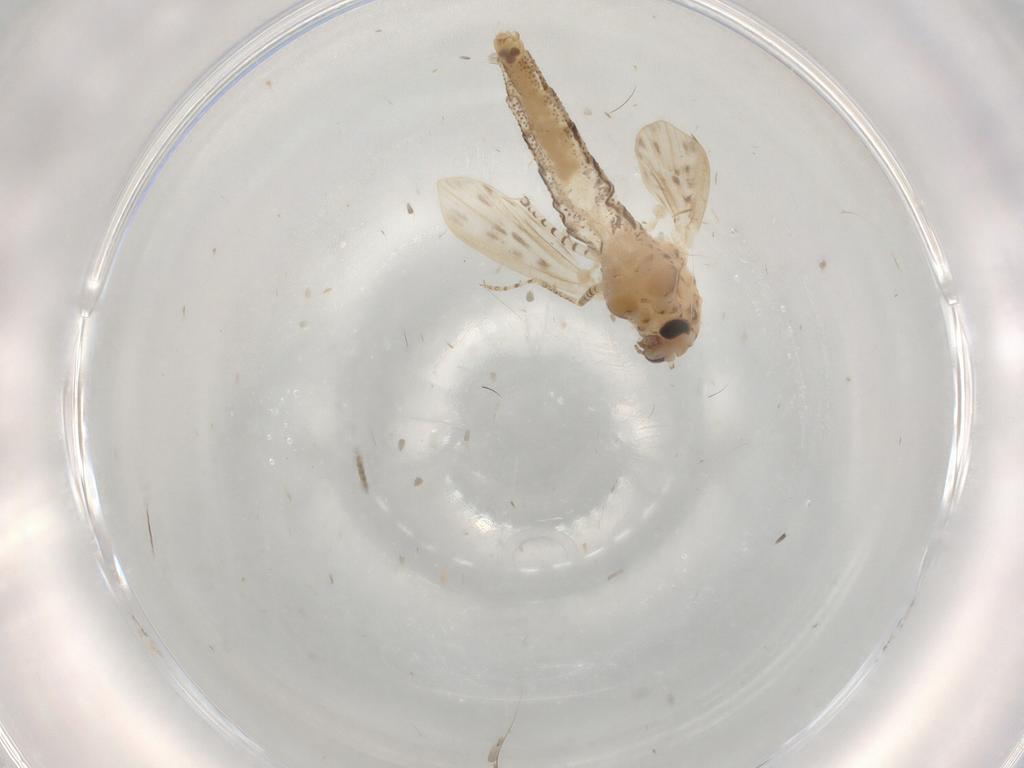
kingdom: Animalia
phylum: Arthropoda
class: Insecta
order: Diptera
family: Chaoboridae
